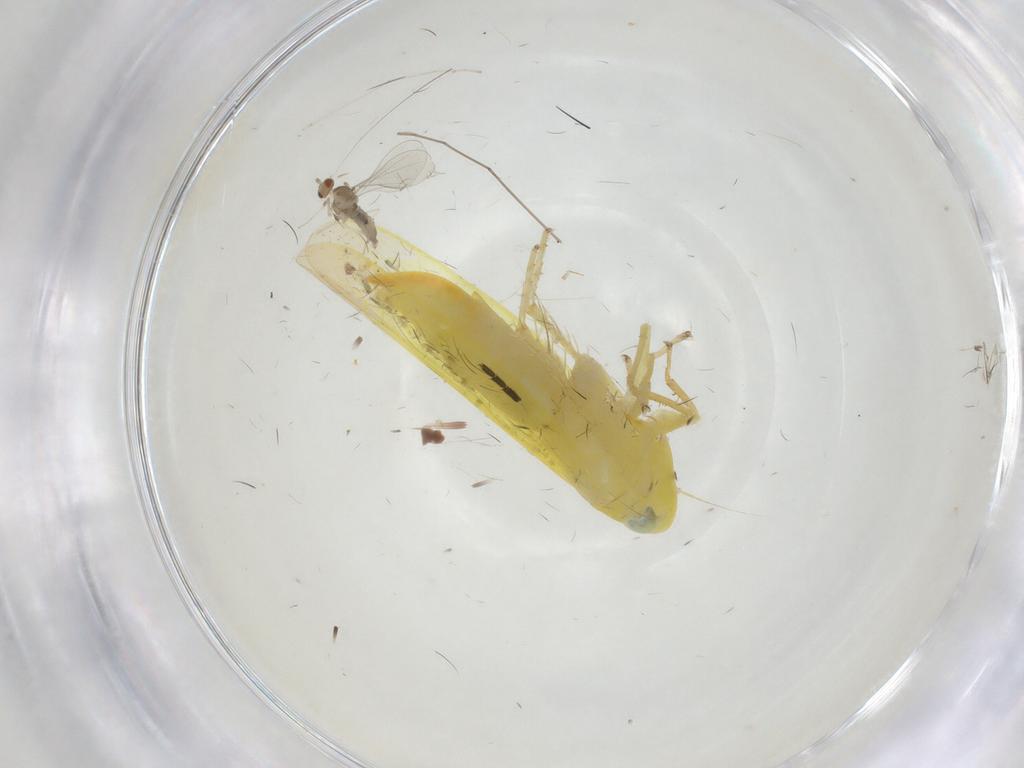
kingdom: Animalia
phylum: Arthropoda
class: Insecta
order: Diptera
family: Cecidomyiidae
